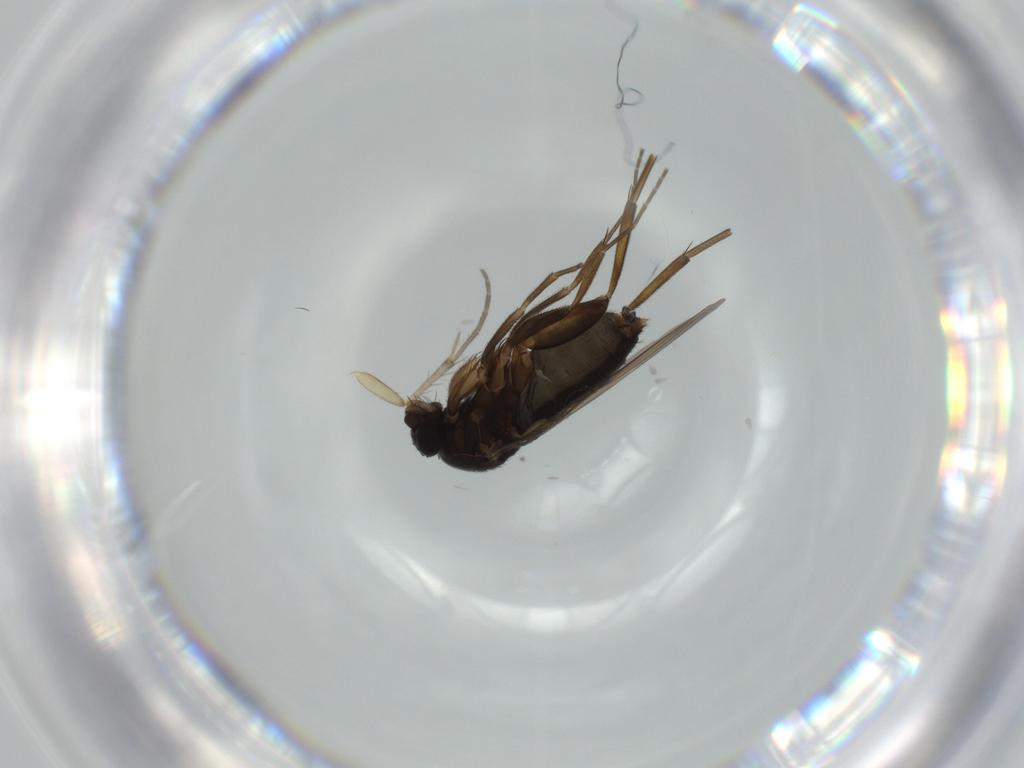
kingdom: Animalia
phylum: Arthropoda
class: Insecta
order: Diptera
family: Phoridae
